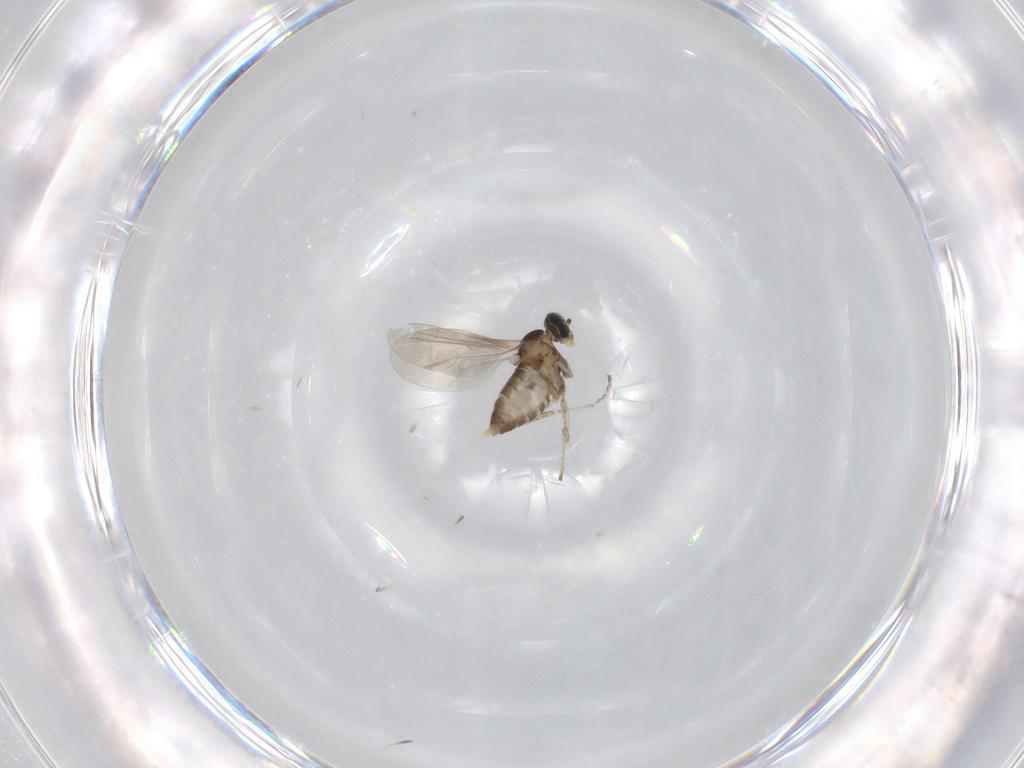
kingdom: Animalia
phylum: Arthropoda
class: Insecta
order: Diptera
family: Cecidomyiidae
